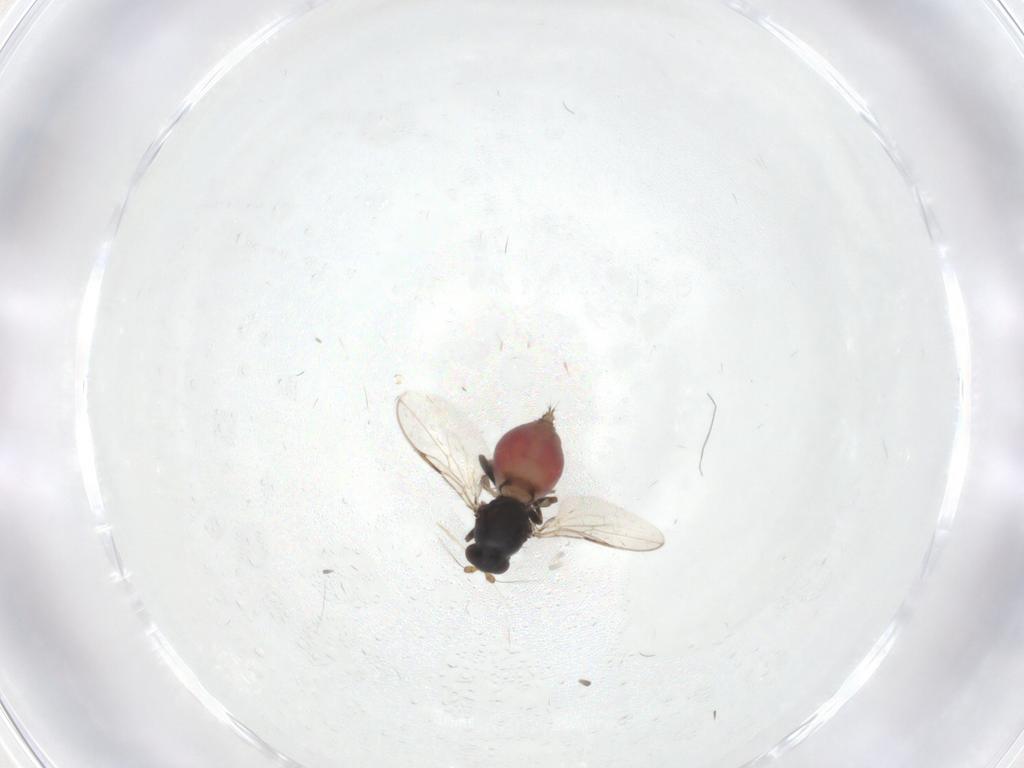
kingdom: Animalia
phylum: Arthropoda
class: Insecta
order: Diptera
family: Sphaeroceridae
